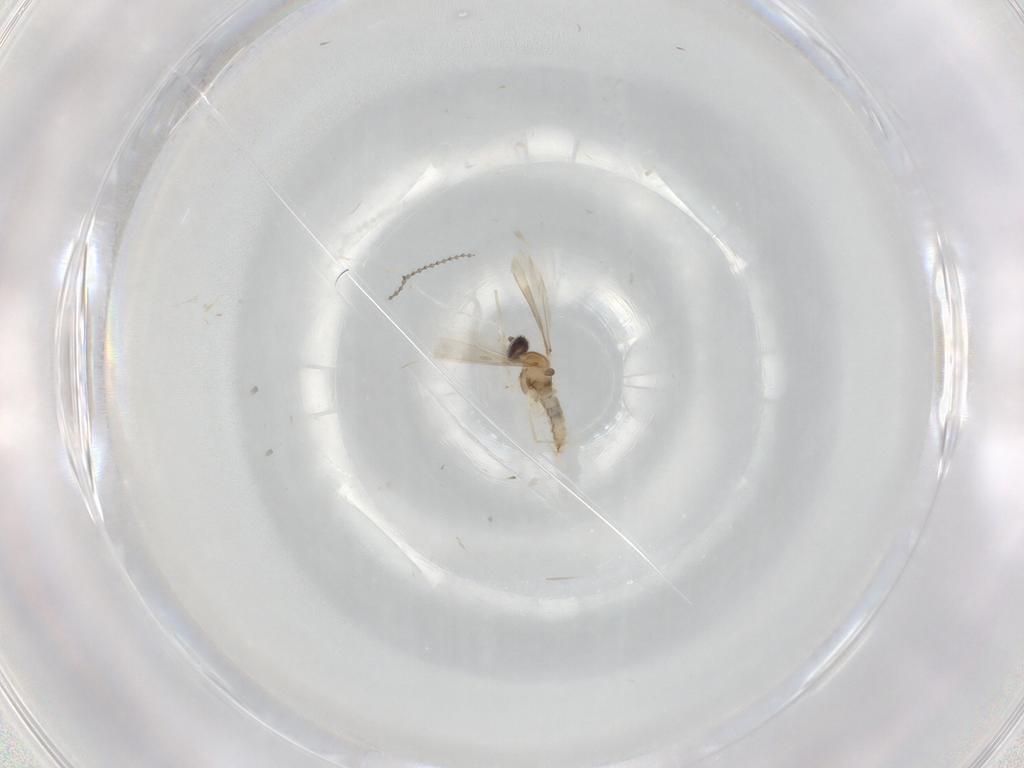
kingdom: Animalia
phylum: Arthropoda
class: Insecta
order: Diptera
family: Cecidomyiidae
